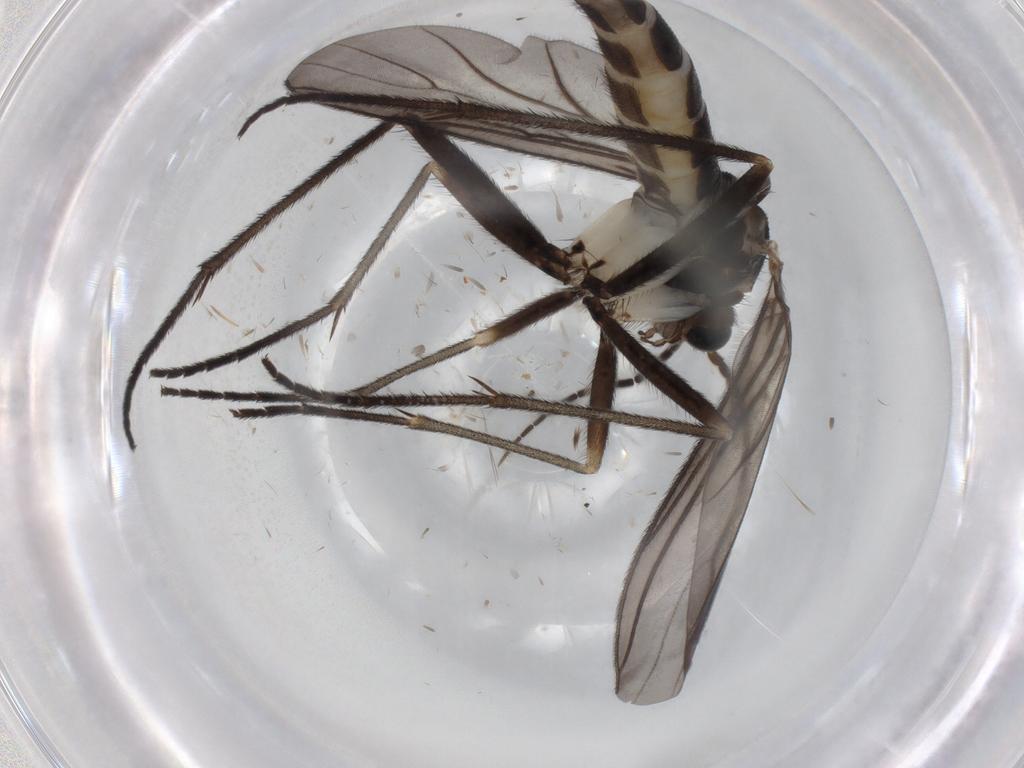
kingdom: Animalia
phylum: Arthropoda
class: Insecta
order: Diptera
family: Sciaridae
